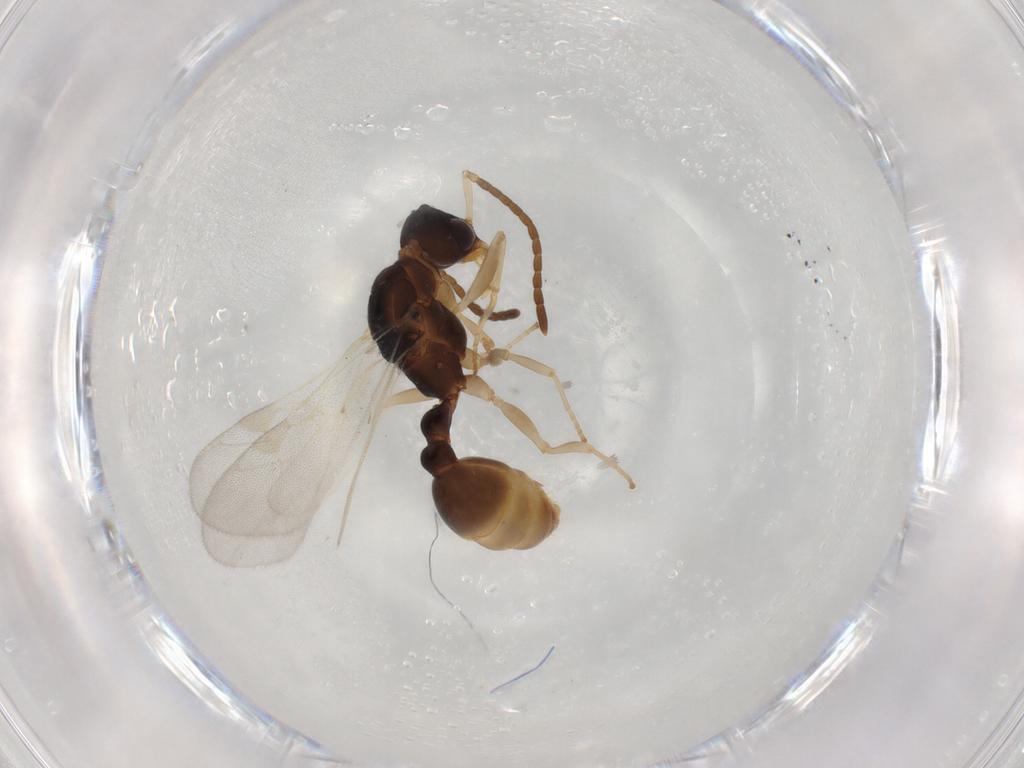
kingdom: Animalia
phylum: Arthropoda
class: Insecta
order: Hymenoptera
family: Formicidae
